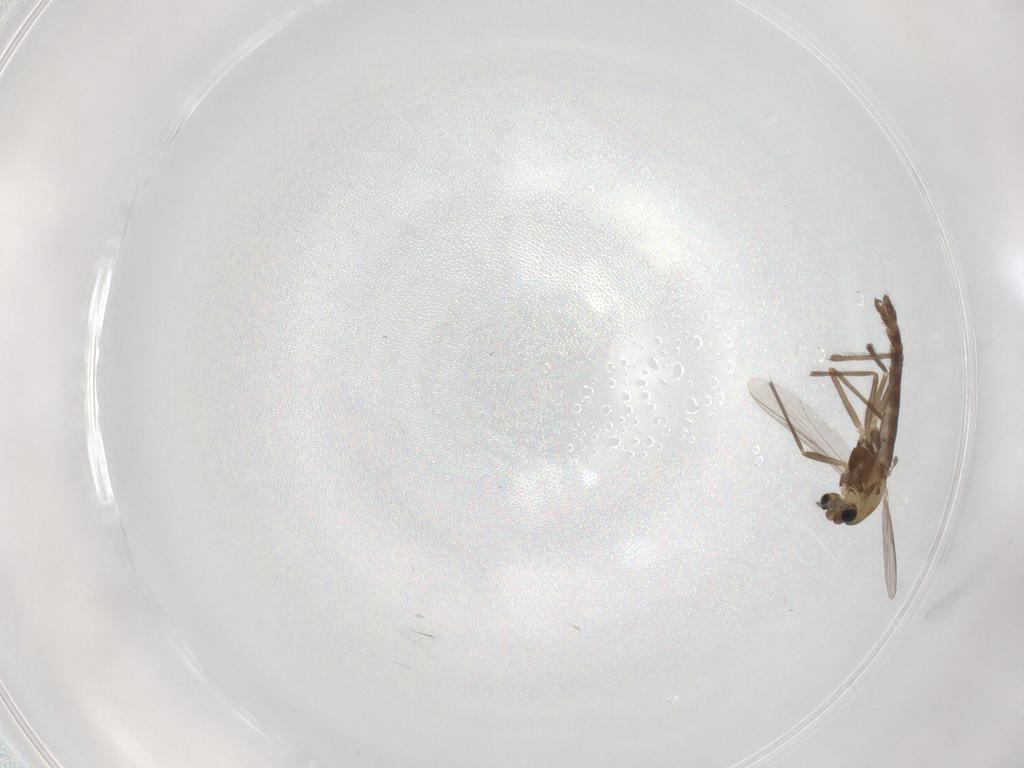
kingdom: Animalia
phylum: Arthropoda
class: Insecta
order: Diptera
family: Chironomidae
